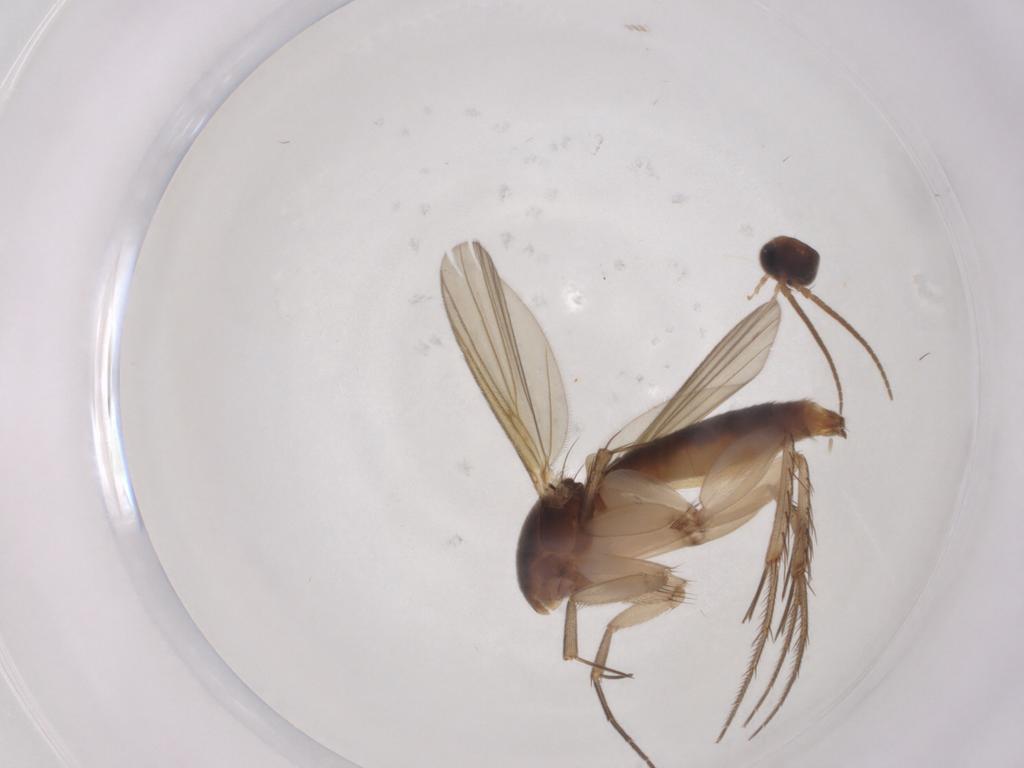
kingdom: Animalia
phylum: Arthropoda
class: Insecta
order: Diptera
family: Mycetophilidae
